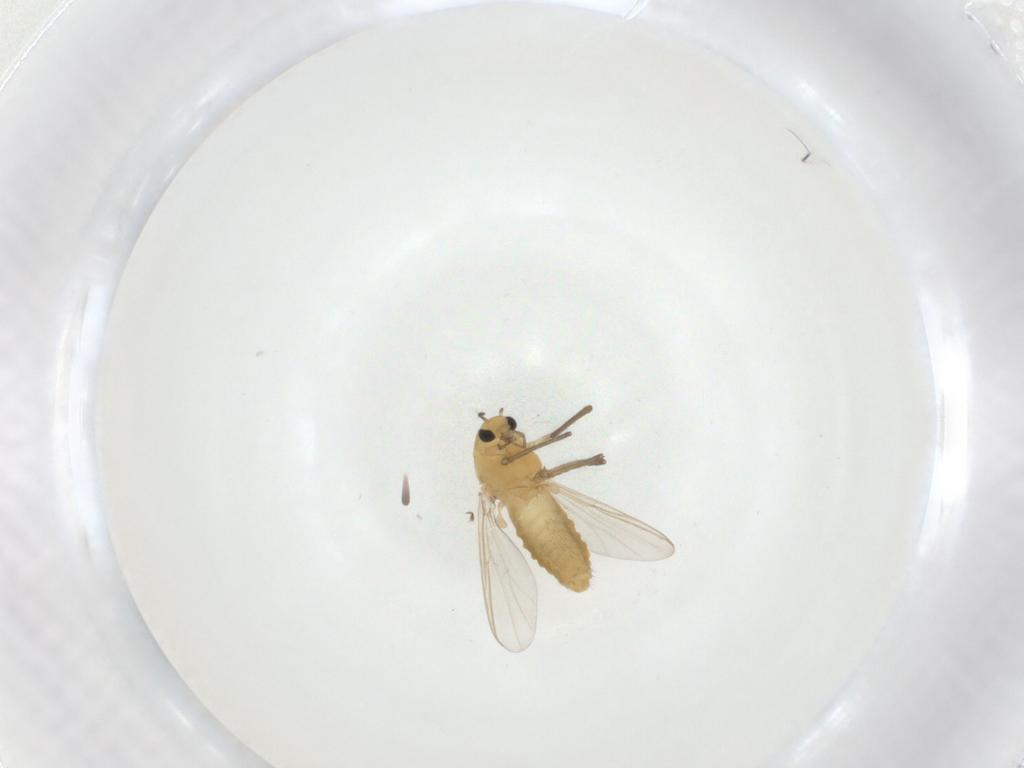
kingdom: Animalia
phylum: Arthropoda
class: Insecta
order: Diptera
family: Chironomidae
